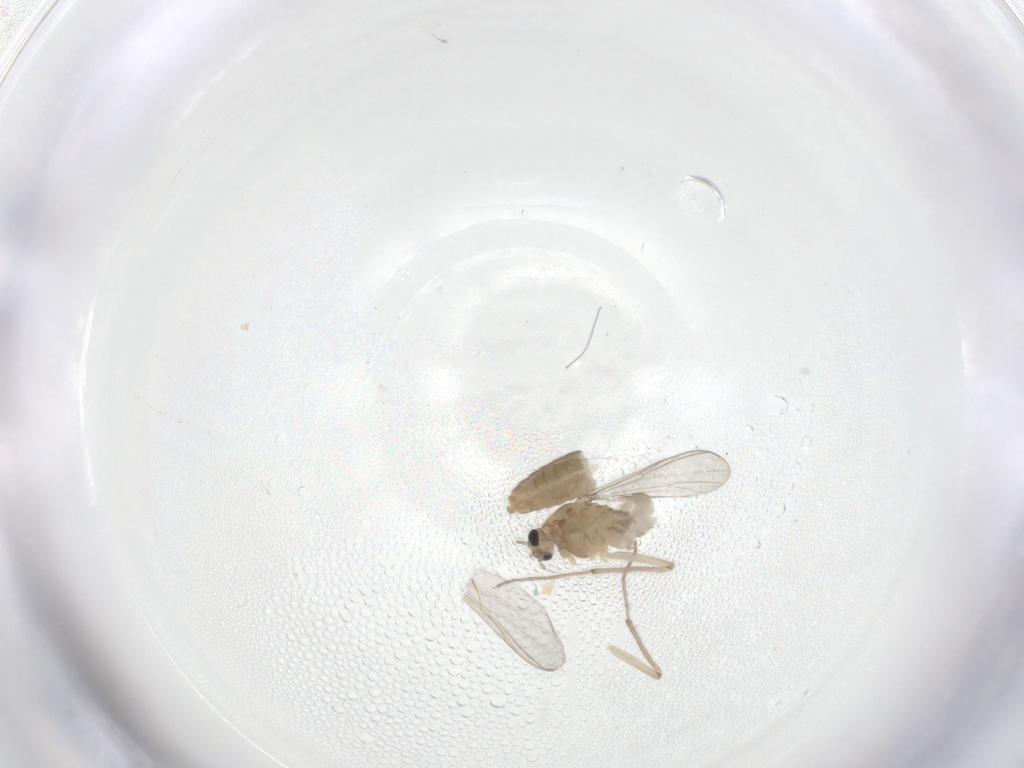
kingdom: Animalia
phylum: Arthropoda
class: Insecta
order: Diptera
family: Chironomidae
